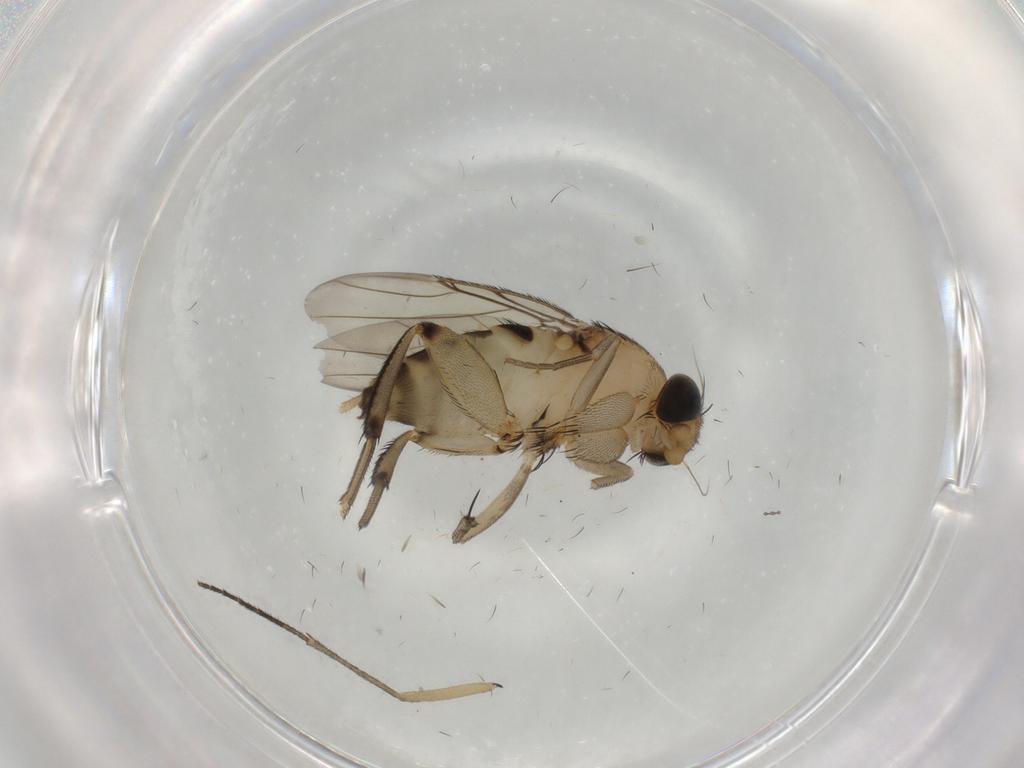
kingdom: Animalia
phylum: Arthropoda
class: Insecta
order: Diptera
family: Chironomidae
